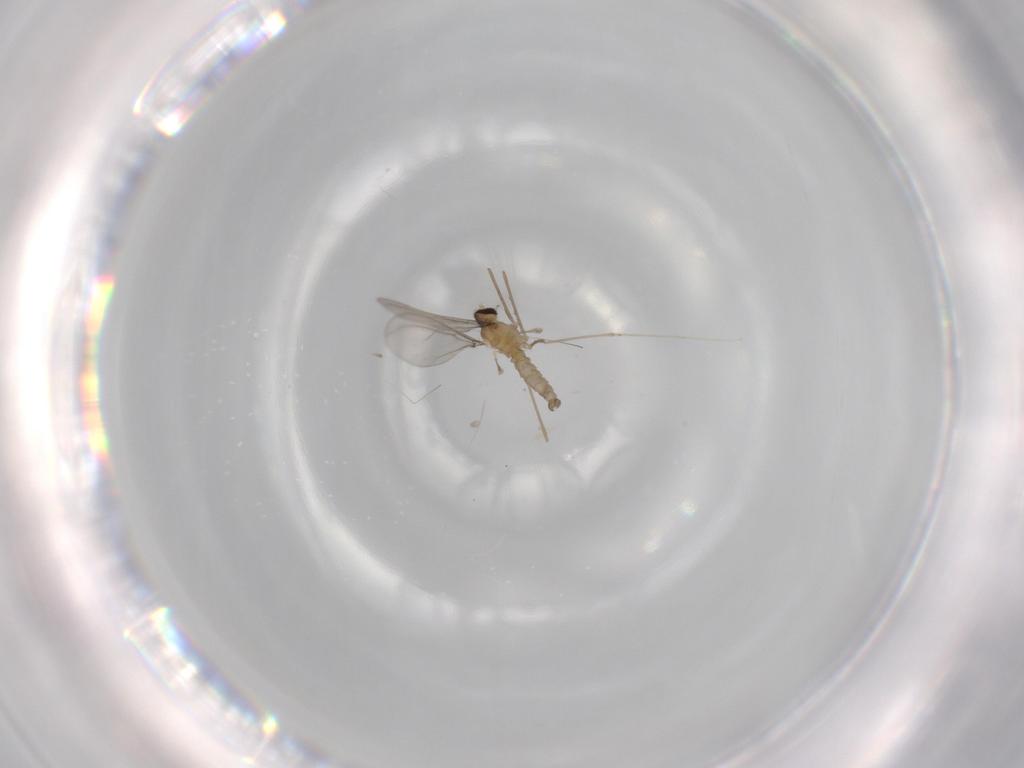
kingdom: Animalia
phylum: Arthropoda
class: Insecta
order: Diptera
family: Cecidomyiidae
